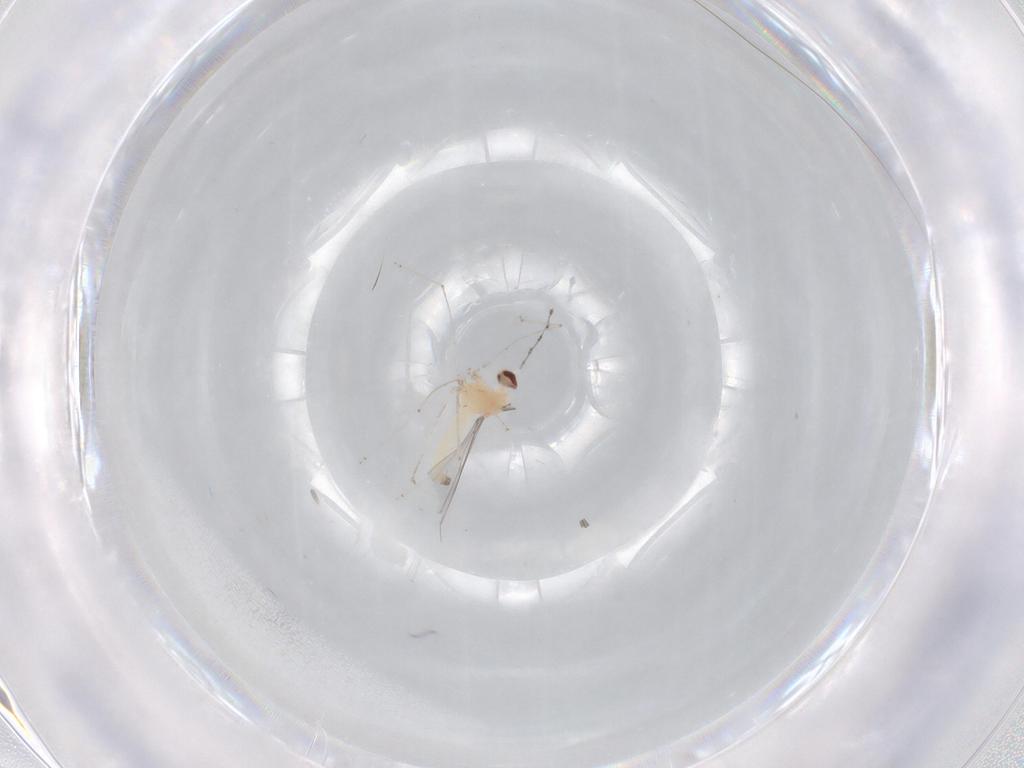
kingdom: Animalia
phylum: Arthropoda
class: Insecta
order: Diptera
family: Cecidomyiidae
